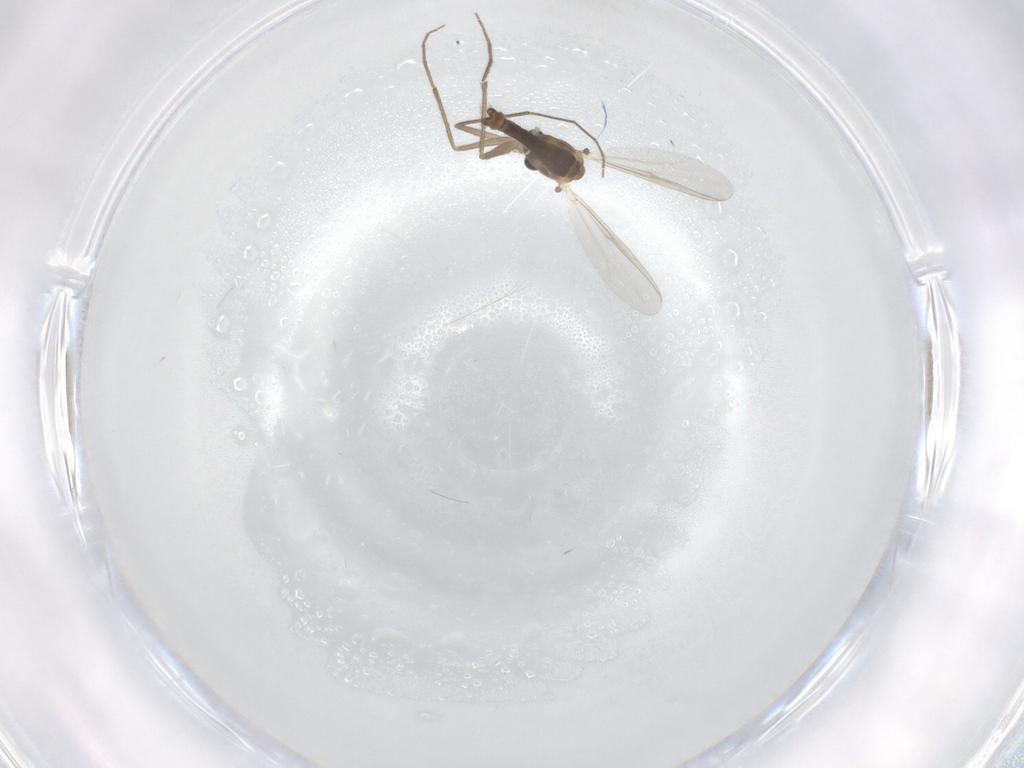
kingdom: Animalia
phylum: Arthropoda
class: Insecta
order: Diptera
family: Chironomidae
